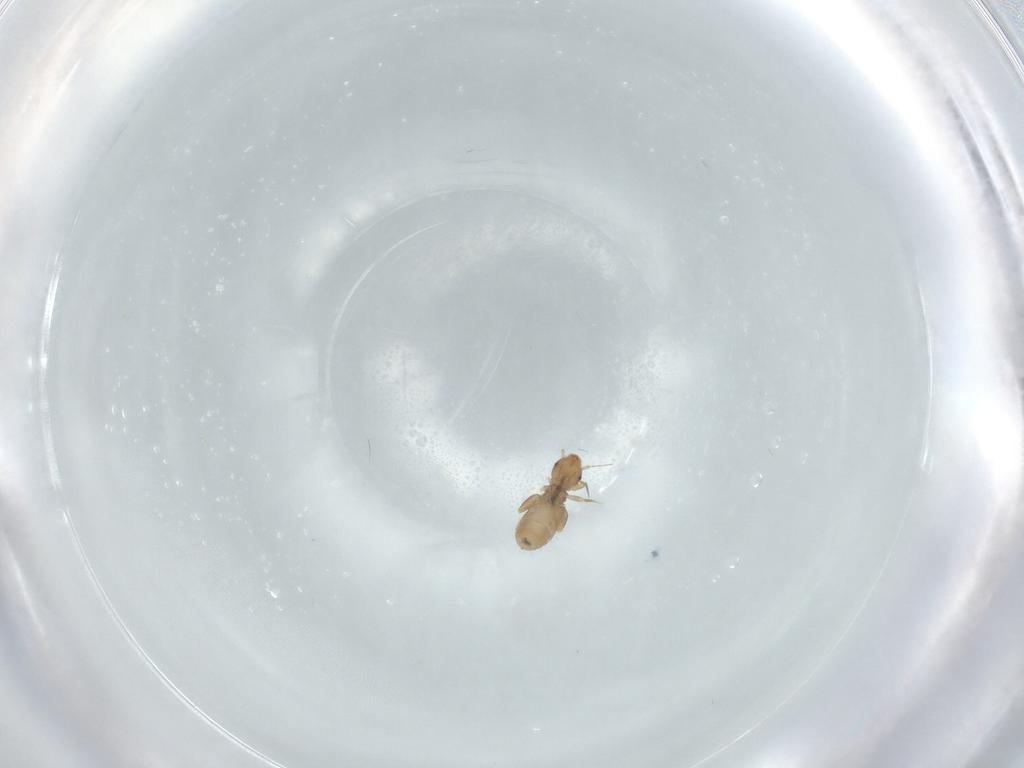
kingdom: Animalia
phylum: Arthropoda
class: Insecta
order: Psocodea
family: Liposcelididae
